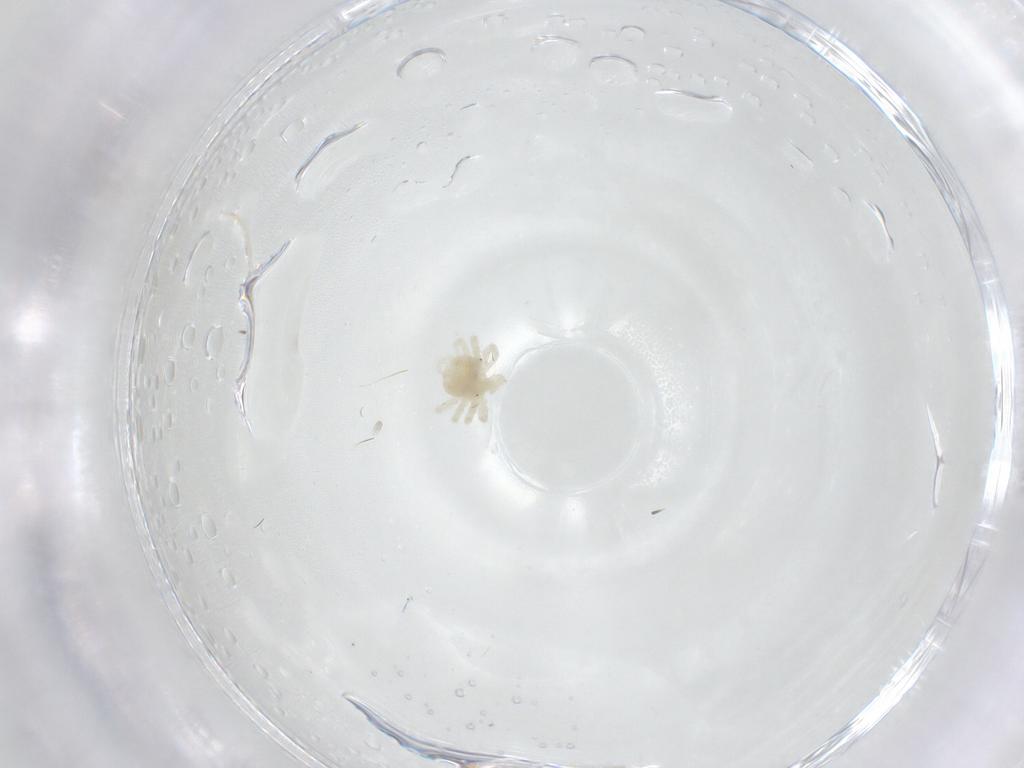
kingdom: Animalia
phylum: Arthropoda
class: Arachnida
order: Trombidiformes
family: Anystidae
